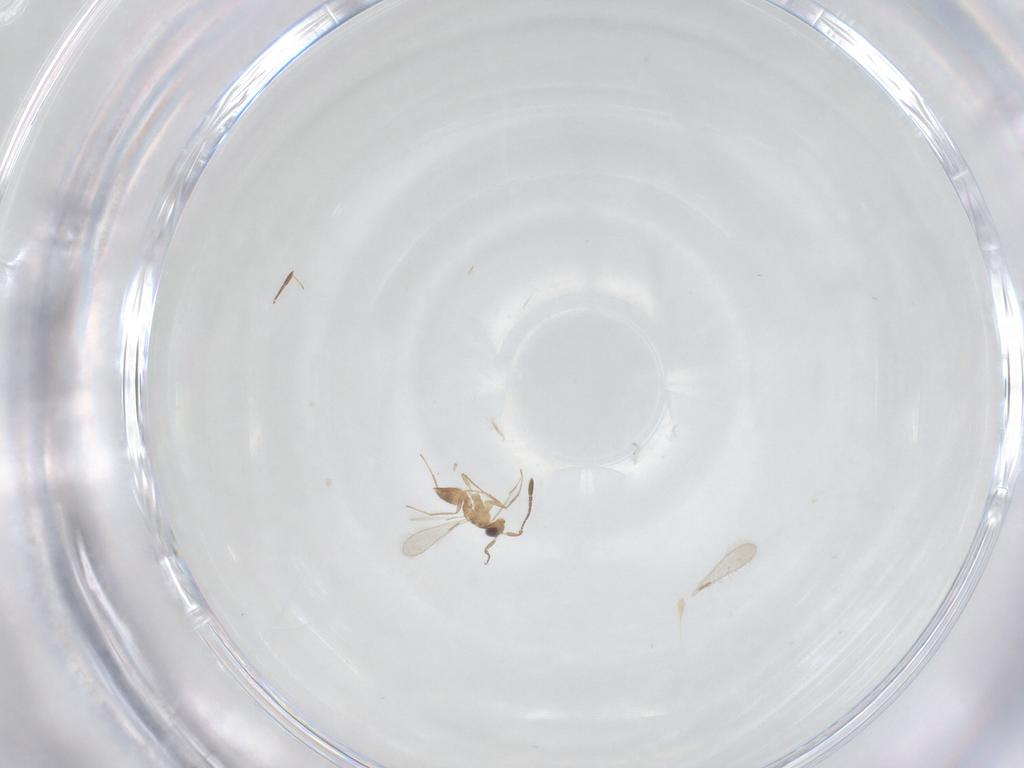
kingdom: Animalia
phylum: Arthropoda
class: Insecta
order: Hymenoptera
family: Mymaridae
